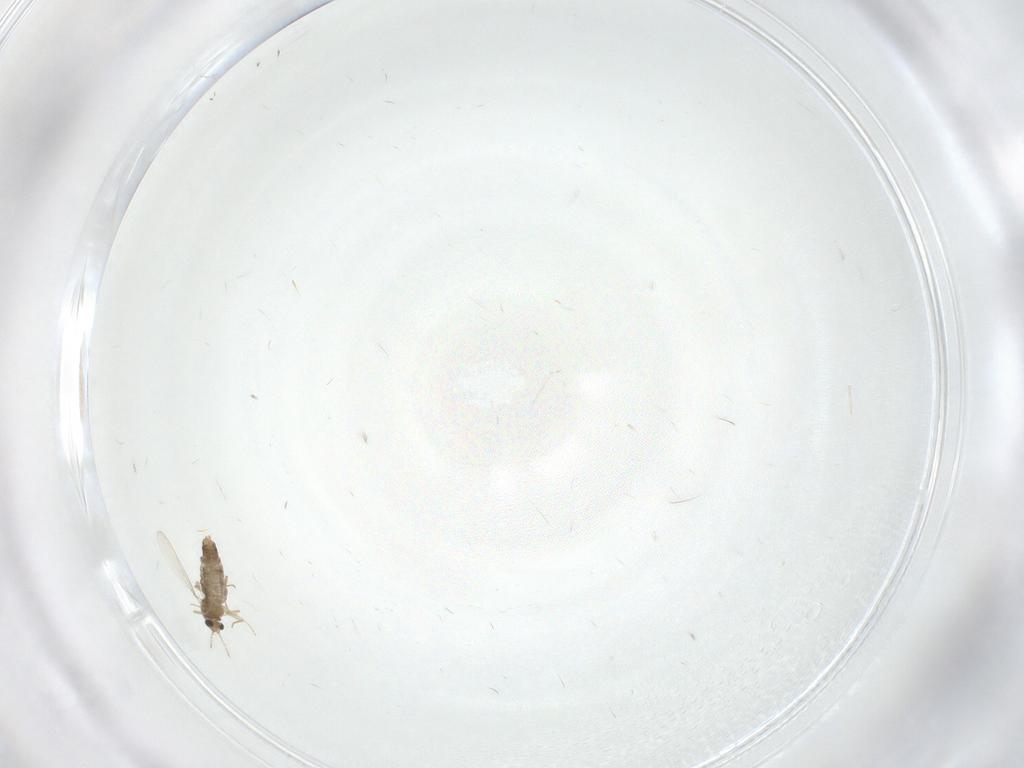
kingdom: Animalia
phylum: Arthropoda
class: Insecta
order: Diptera
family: Limoniidae
